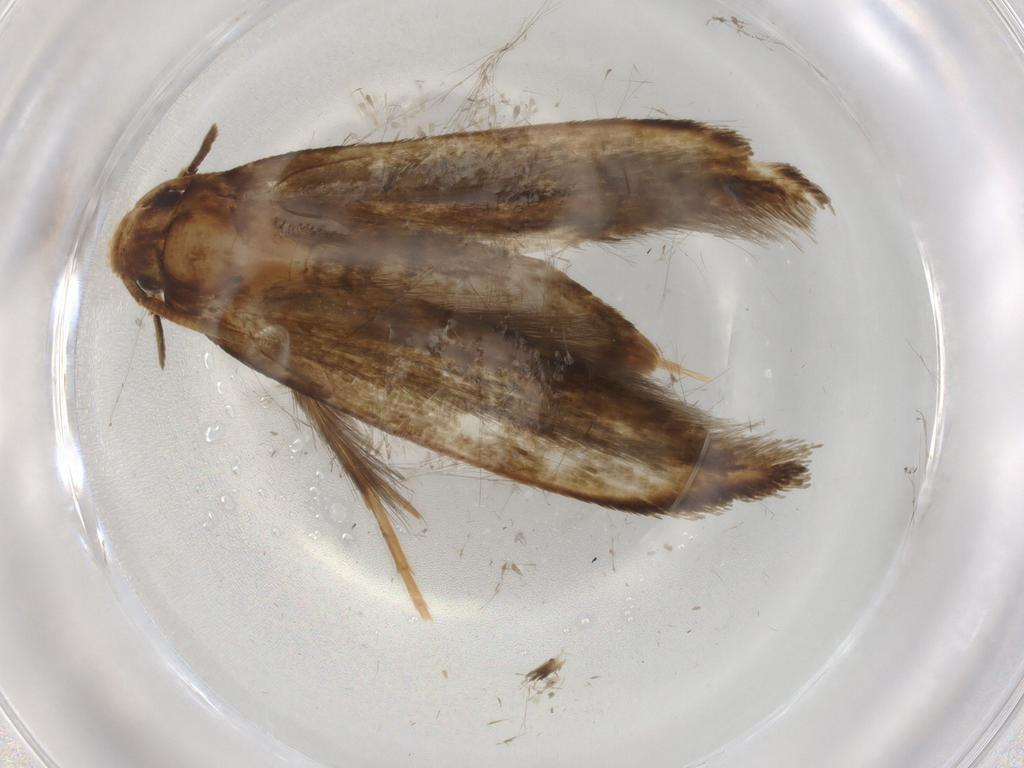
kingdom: Animalia
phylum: Arthropoda
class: Insecta
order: Lepidoptera
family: Tineidae
